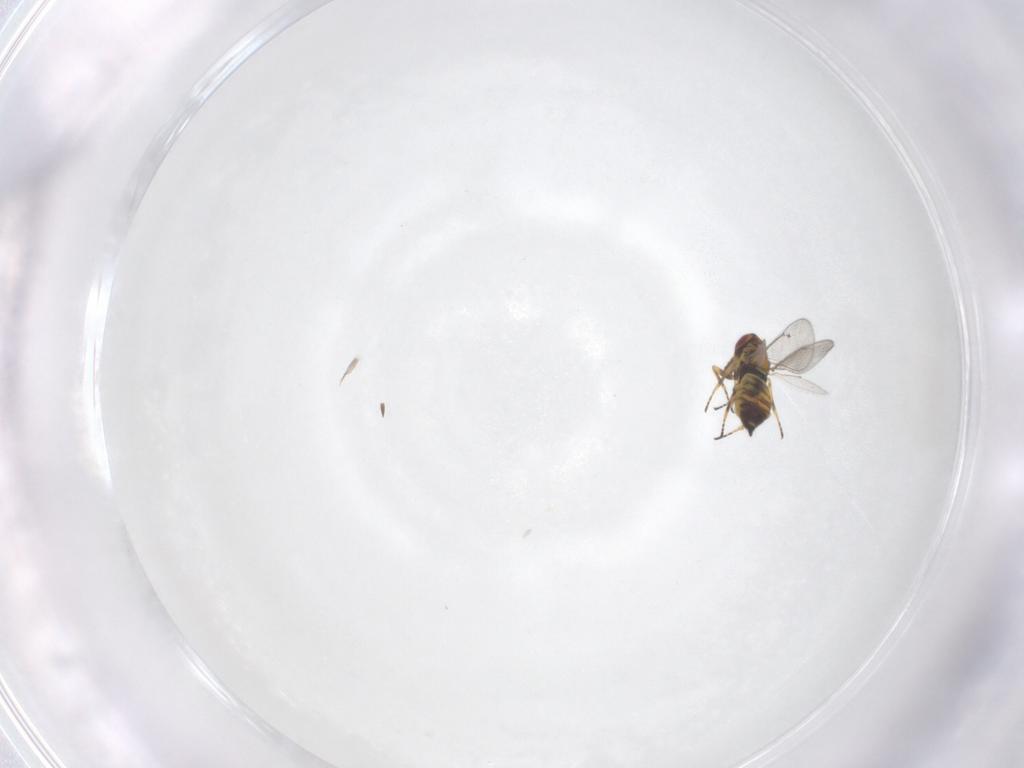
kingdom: Animalia
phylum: Arthropoda
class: Insecta
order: Hymenoptera
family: Eulophidae
